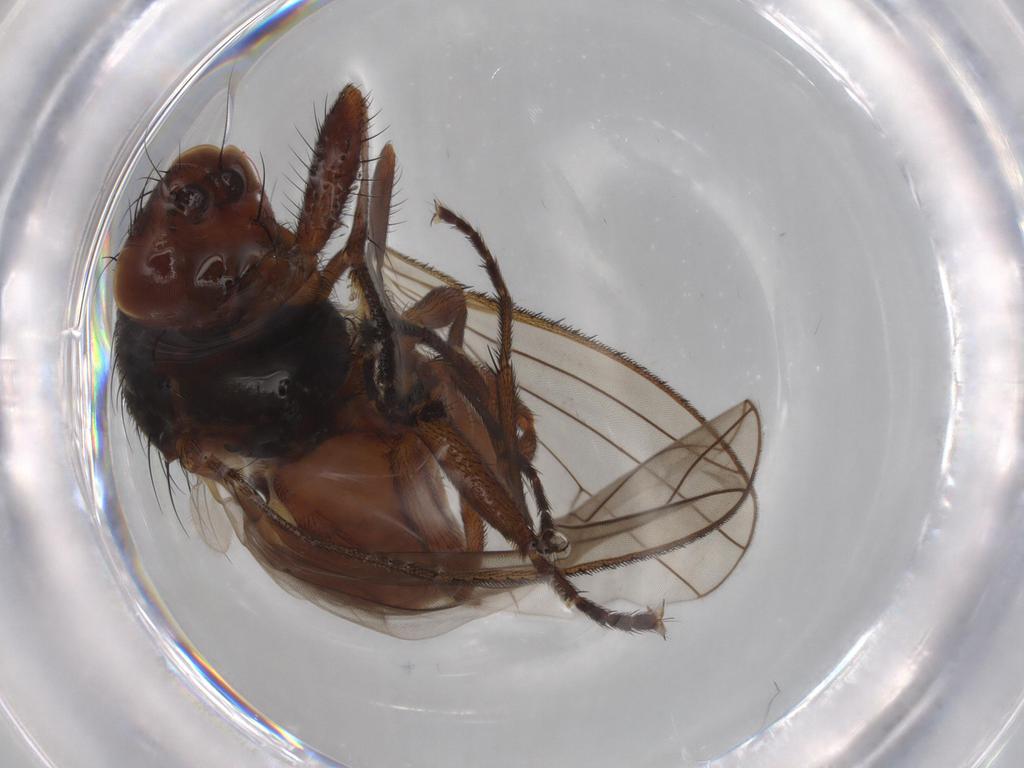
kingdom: Animalia
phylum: Arthropoda
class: Insecta
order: Diptera
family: Heleomyzidae
